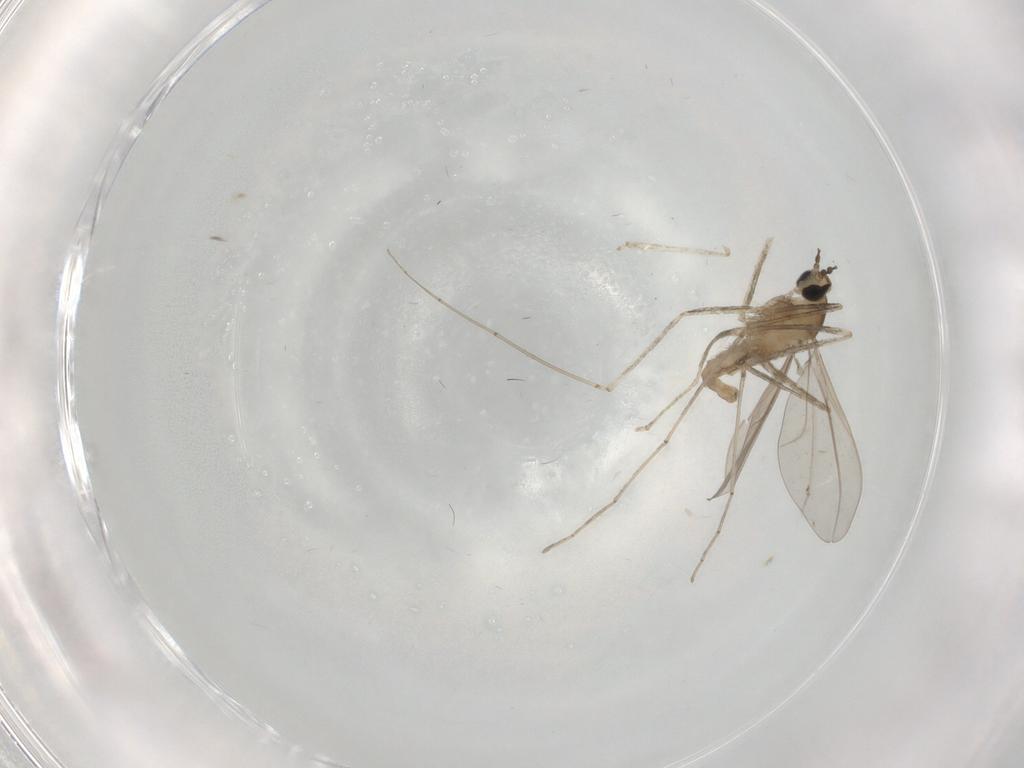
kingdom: Animalia
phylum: Arthropoda
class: Insecta
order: Diptera
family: Cecidomyiidae
